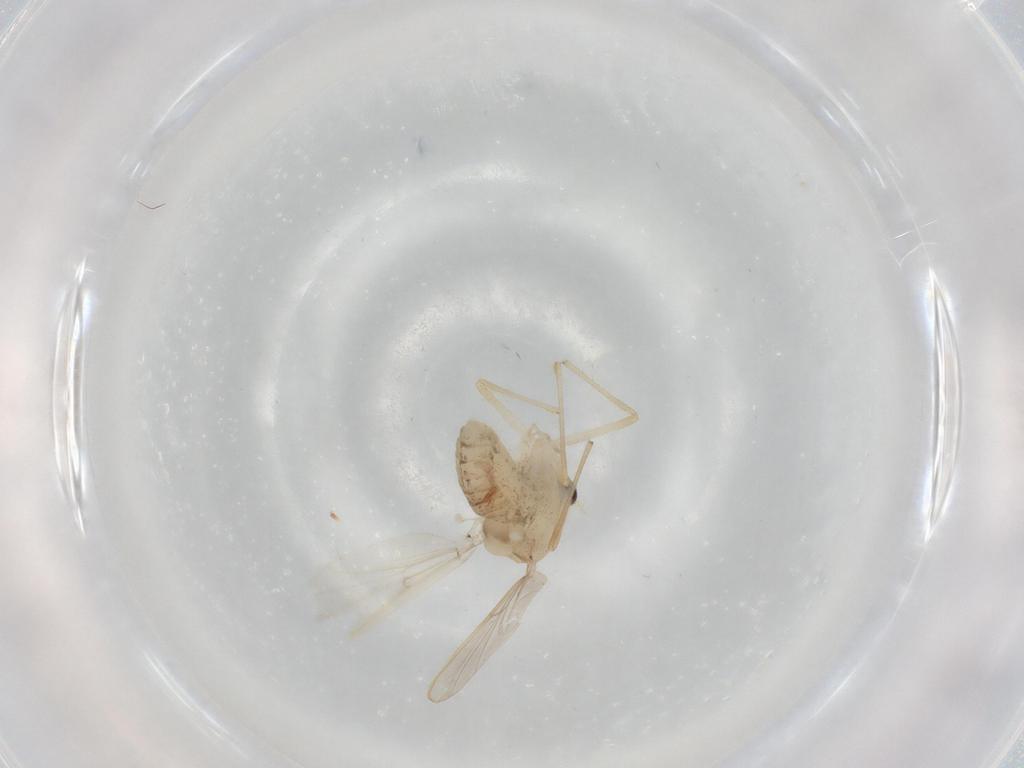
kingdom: Animalia
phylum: Arthropoda
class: Insecta
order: Diptera
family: Chironomidae
